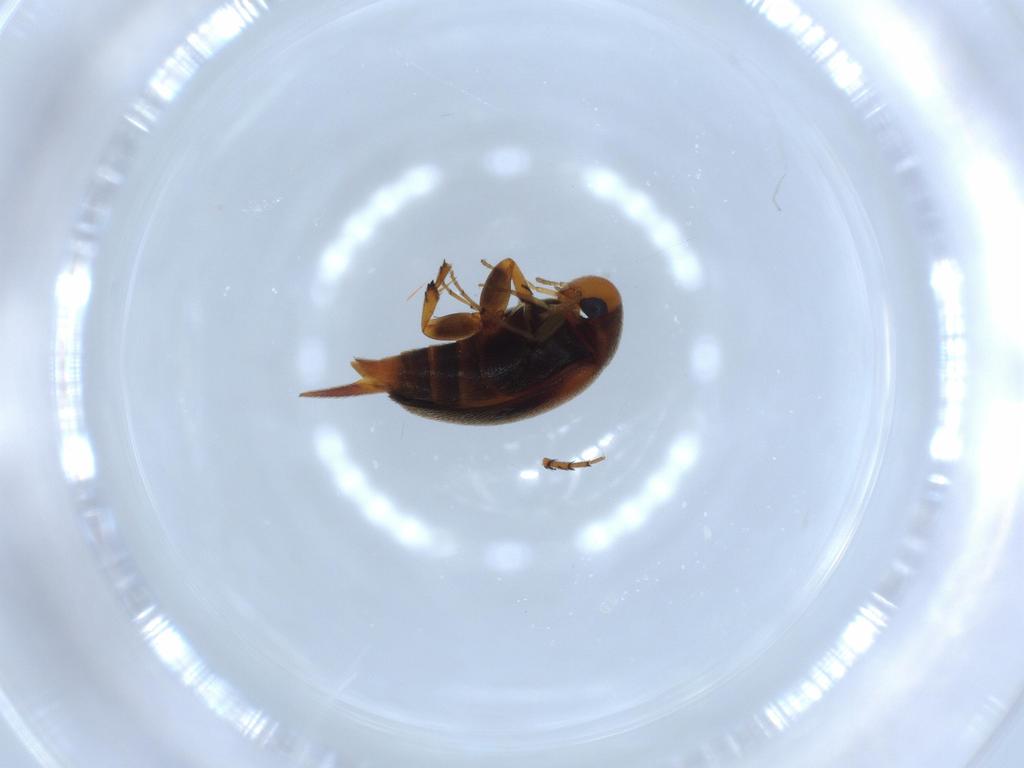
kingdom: Animalia
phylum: Arthropoda
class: Insecta
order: Coleoptera
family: Mordellidae
